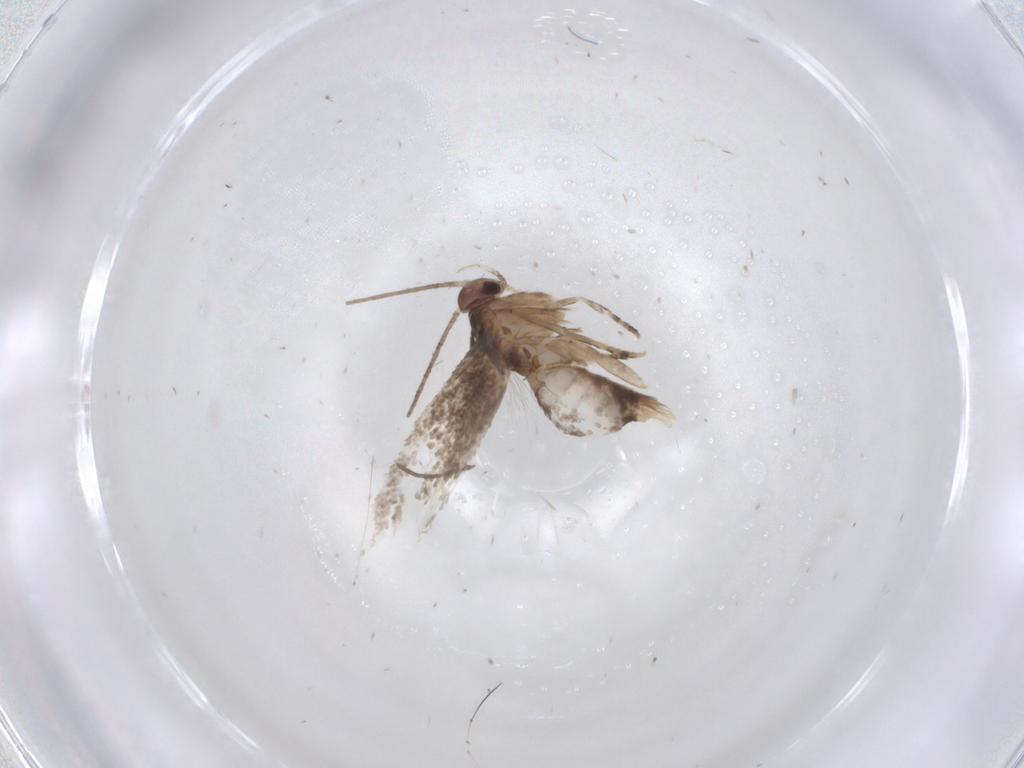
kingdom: Animalia
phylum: Arthropoda
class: Insecta
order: Lepidoptera
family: Elachistidae
